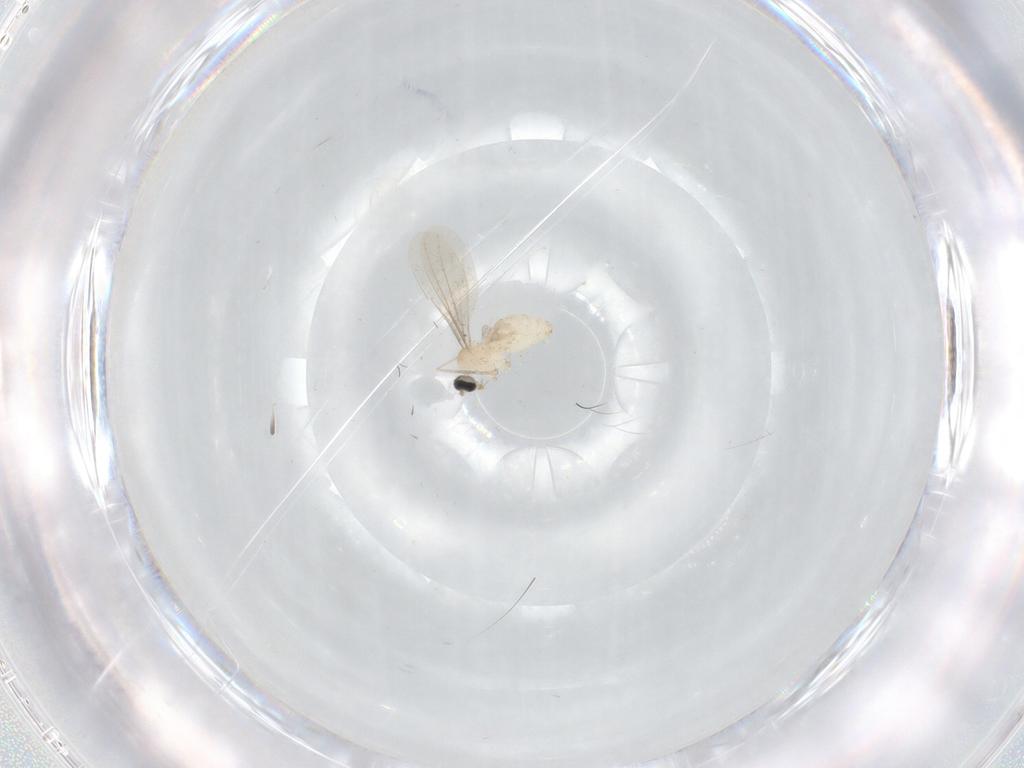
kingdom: Animalia
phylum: Arthropoda
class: Insecta
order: Diptera
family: Cecidomyiidae
